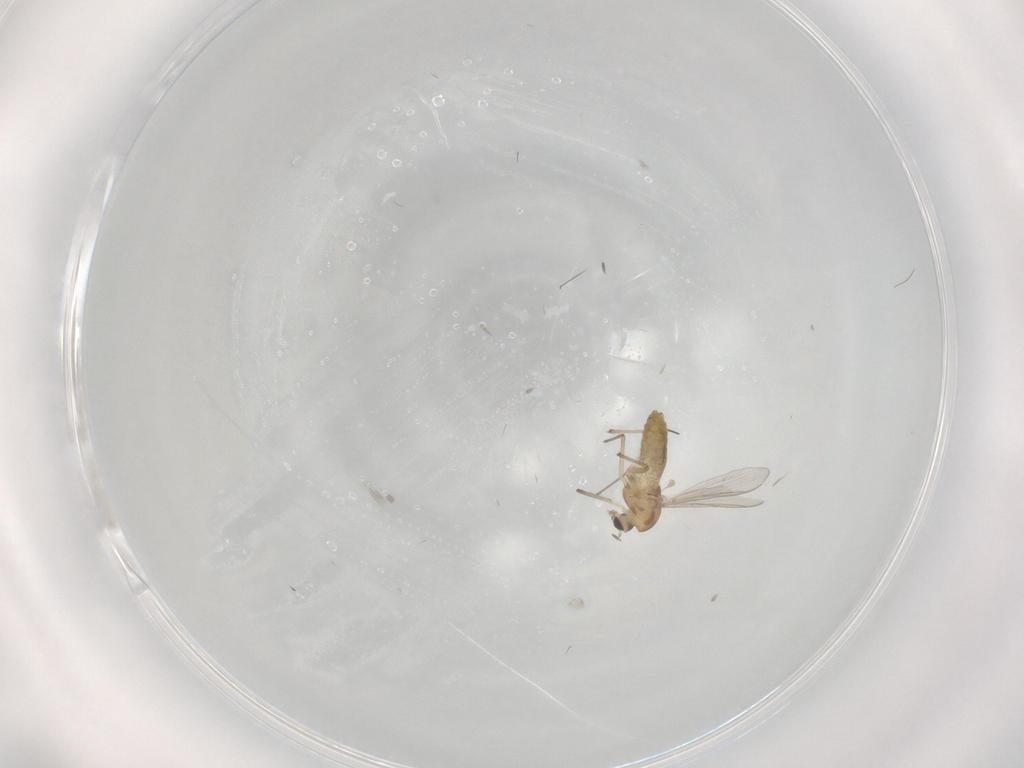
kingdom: Animalia
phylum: Arthropoda
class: Insecta
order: Diptera
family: Chironomidae
